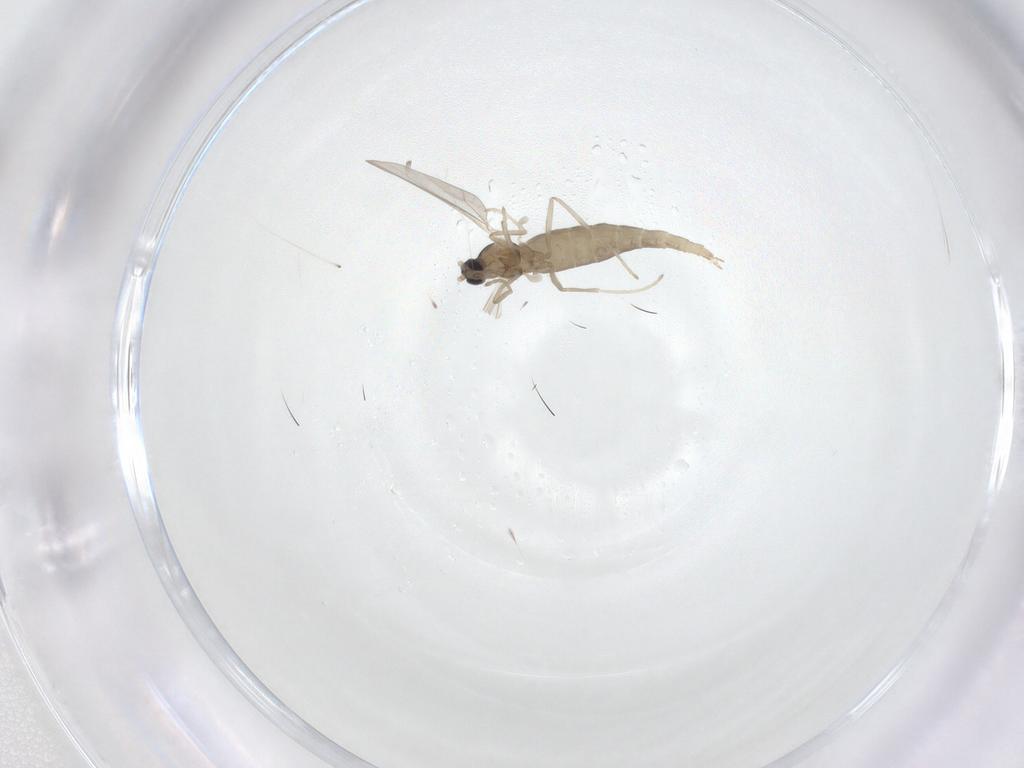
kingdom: Animalia
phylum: Arthropoda
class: Insecta
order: Diptera
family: Cecidomyiidae
